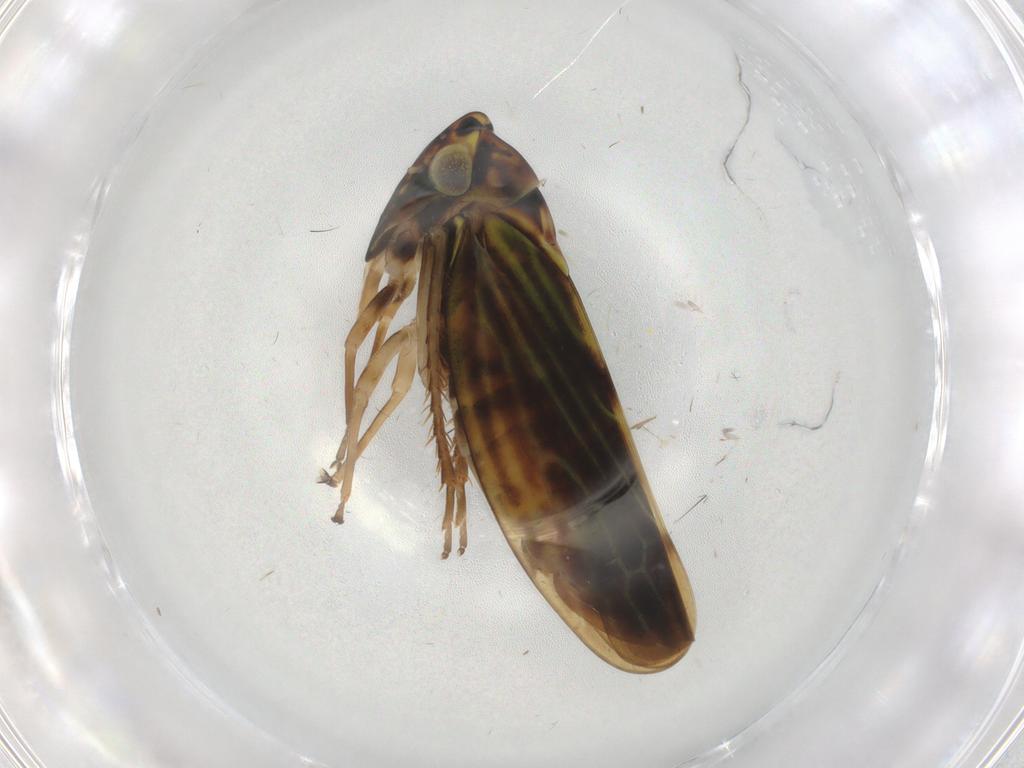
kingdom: Animalia
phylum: Arthropoda
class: Insecta
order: Hemiptera
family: Cicadellidae
